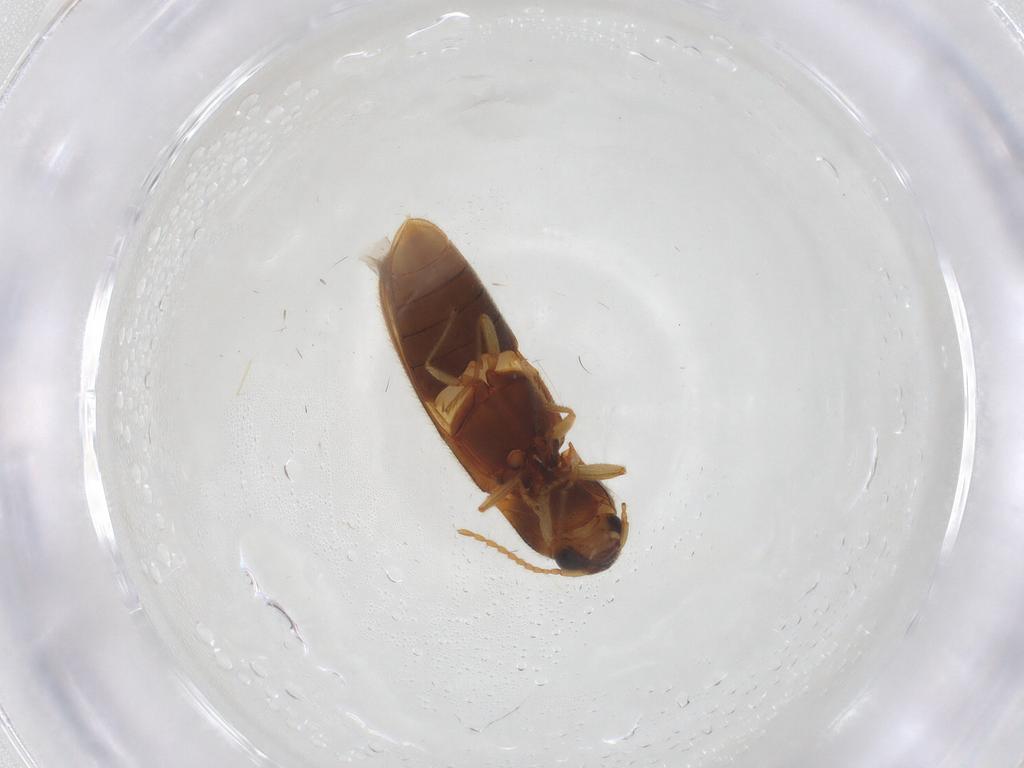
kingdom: Animalia
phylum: Arthropoda
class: Insecta
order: Coleoptera
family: Elateridae
